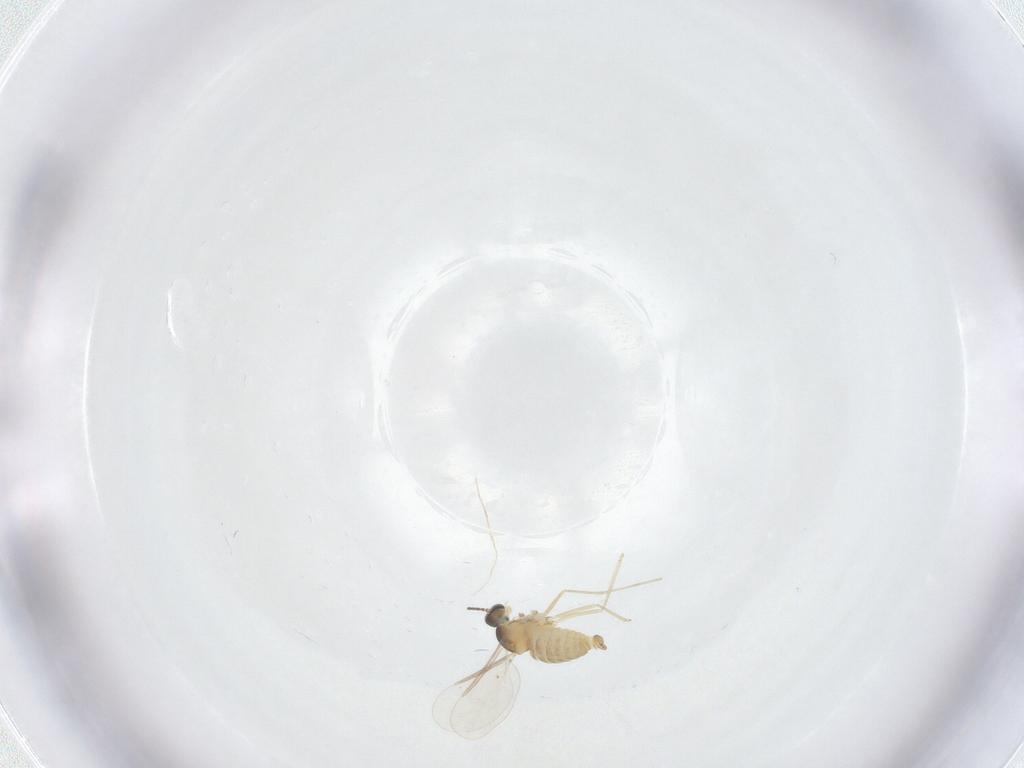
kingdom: Animalia
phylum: Arthropoda
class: Insecta
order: Diptera
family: Cecidomyiidae
